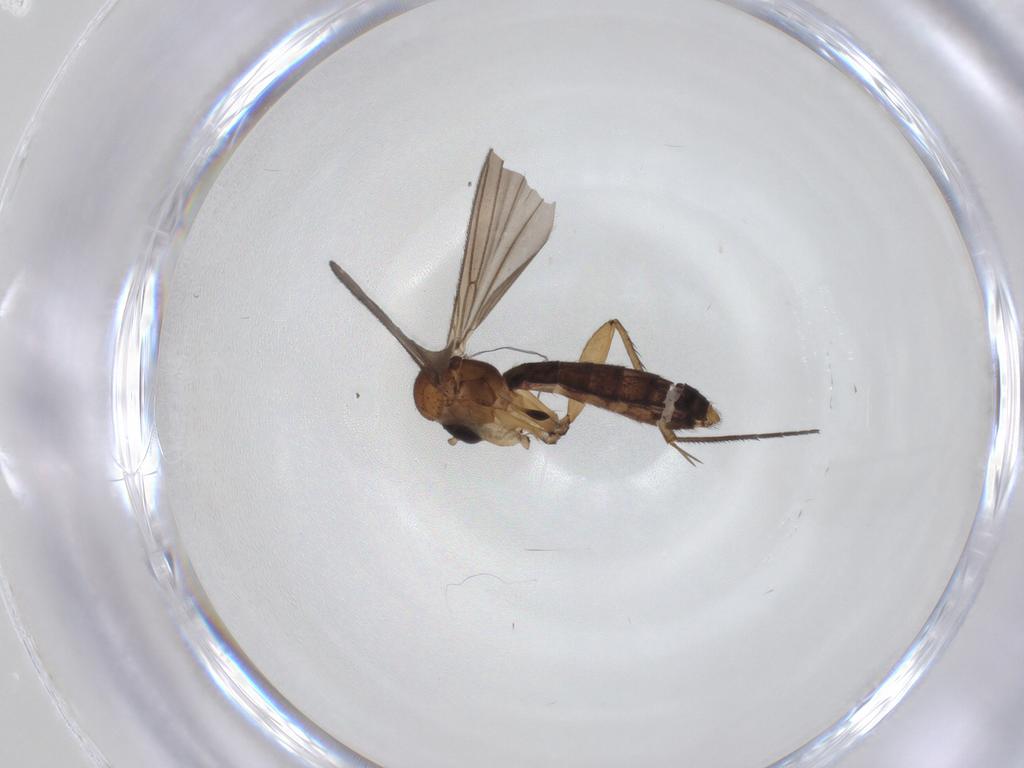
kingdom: Animalia
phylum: Arthropoda
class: Insecta
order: Diptera
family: Mycetophilidae
